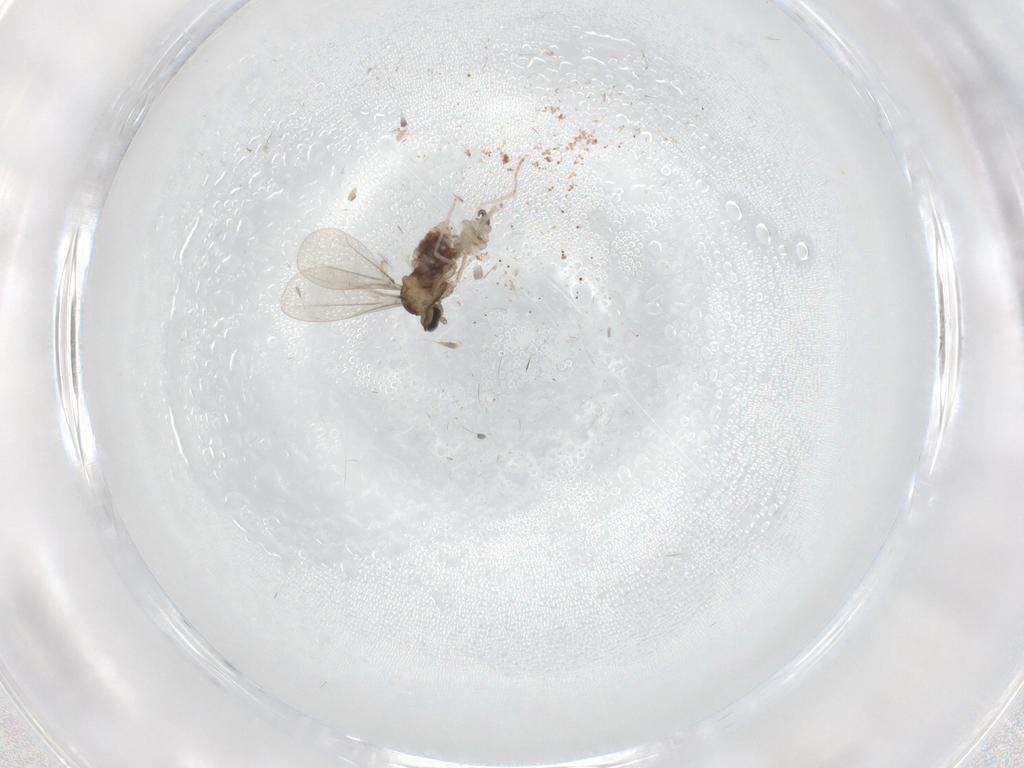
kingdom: Animalia
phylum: Arthropoda
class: Insecta
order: Diptera
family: Cecidomyiidae
